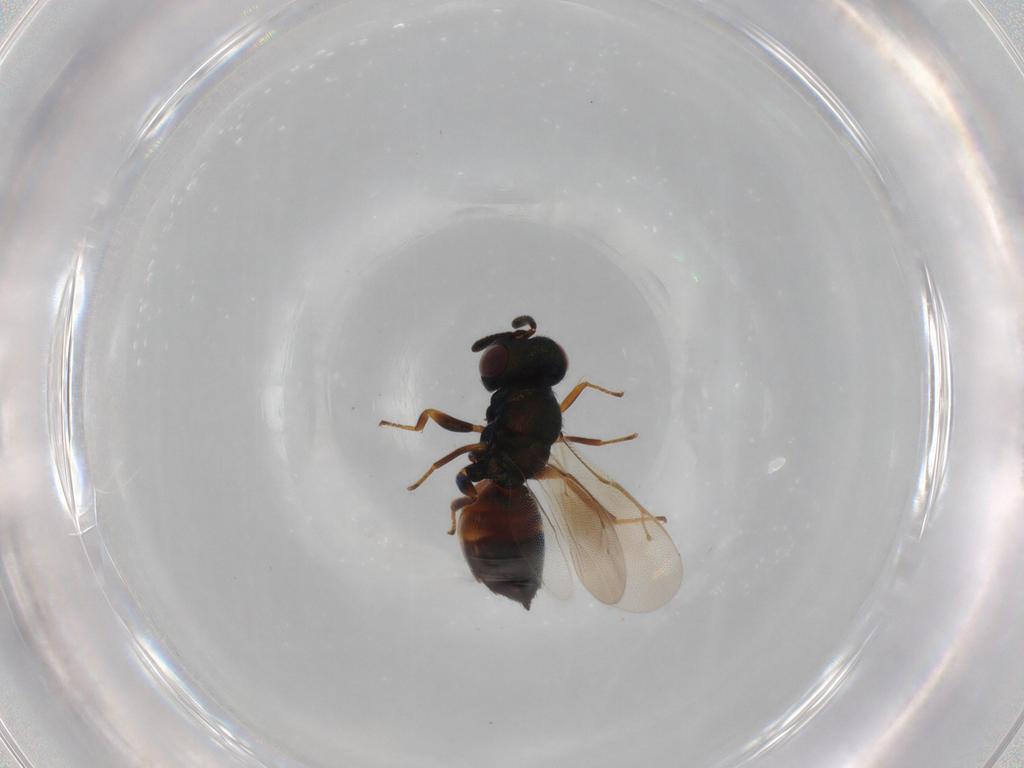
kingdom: Animalia
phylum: Arthropoda
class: Insecta
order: Hymenoptera
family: Pteromalidae
